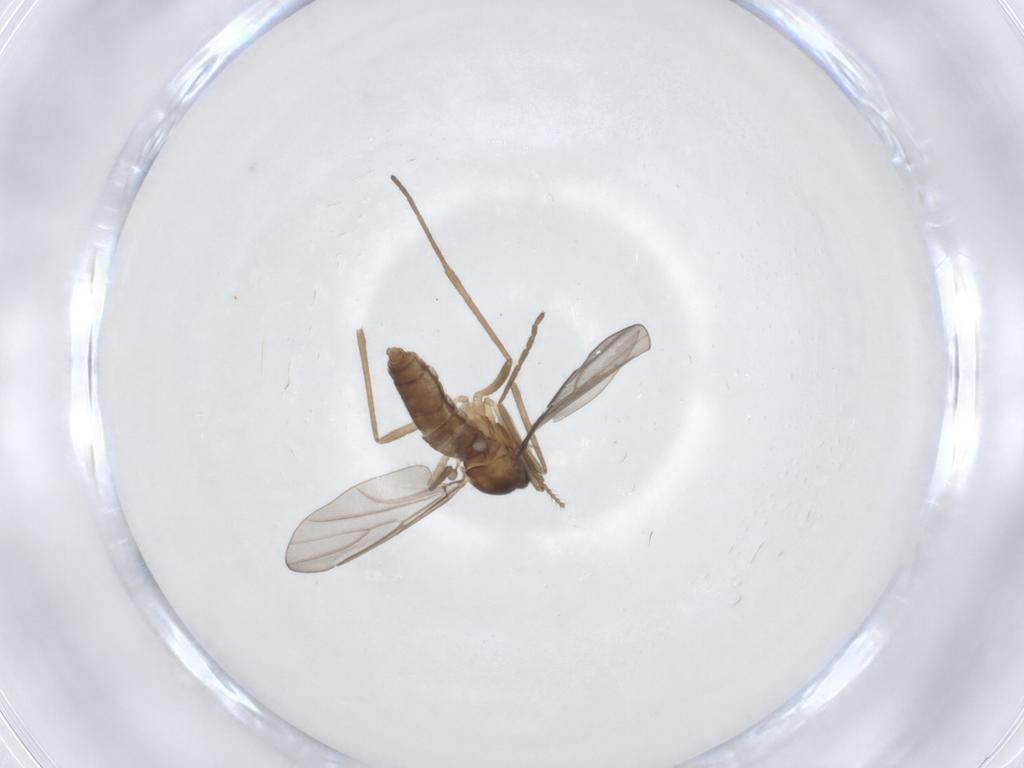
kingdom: Animalia
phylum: Arthropoda
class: Insecta
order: Diptera
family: Cecidomyiidae
